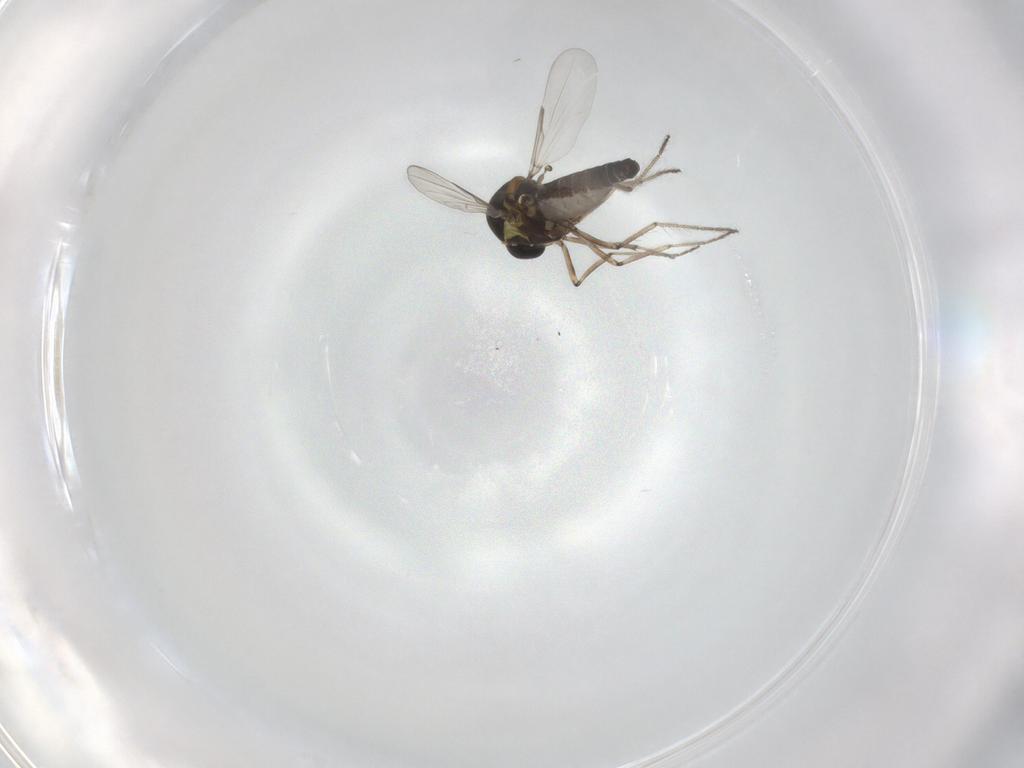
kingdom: Animalia
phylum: Arthropoda
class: Insecta
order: Diptera
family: Ceratopogonidae
